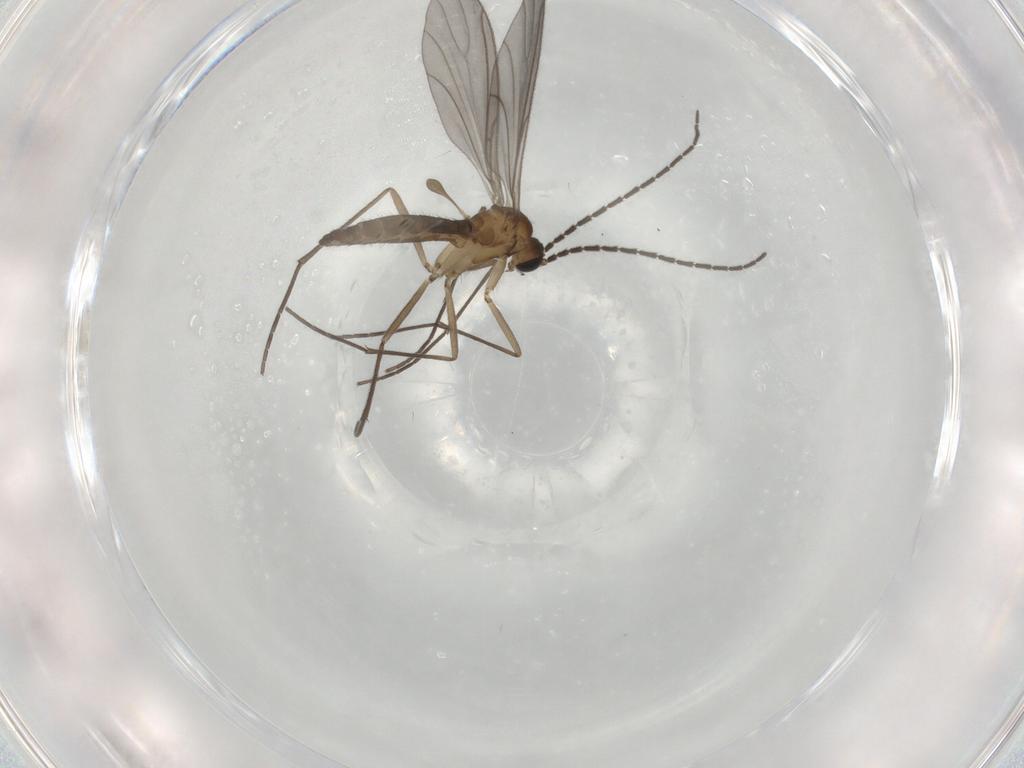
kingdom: Animalia
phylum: Arthropoda
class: Insecta
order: Diptera
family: Sciaridae
